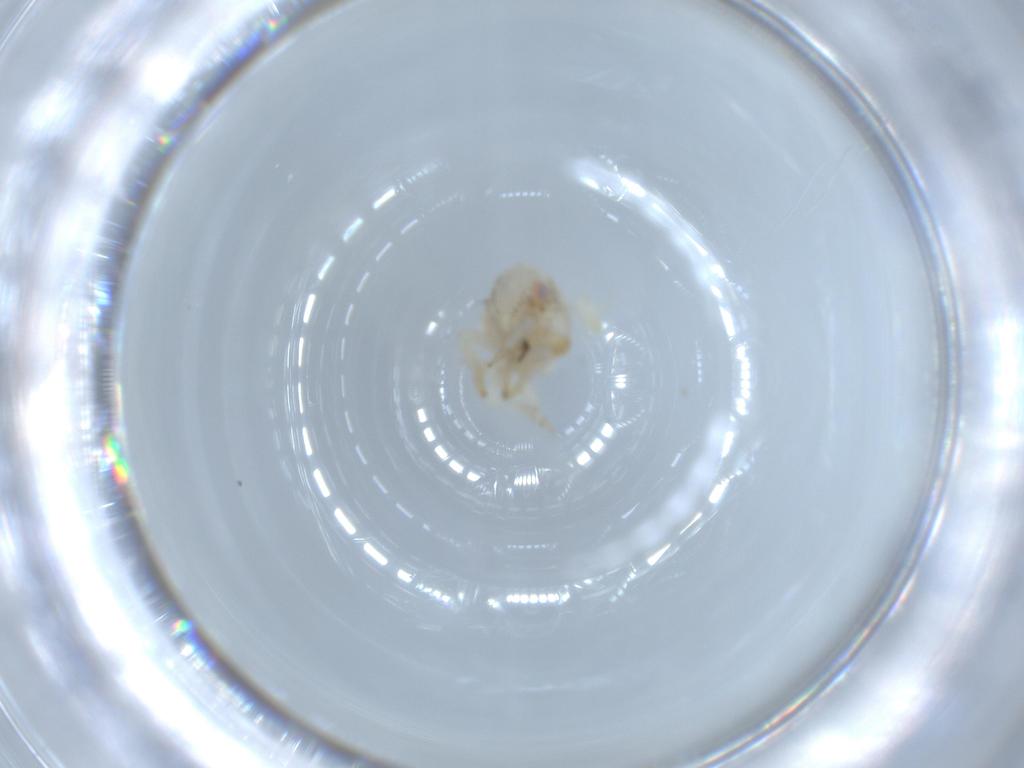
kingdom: Animalia
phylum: Arthropoda
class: Insecta
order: Hemiptera
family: Acanaloniidae
